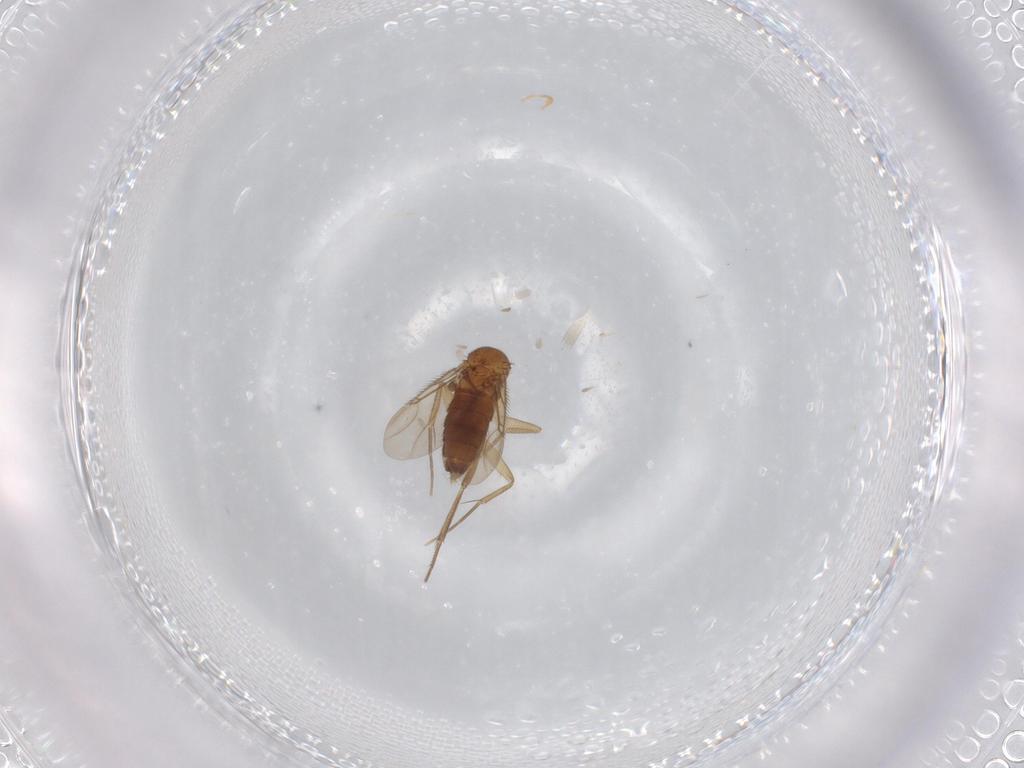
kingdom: Animalia
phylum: Arthropoda
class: Insecta
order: Diptera
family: Phoridae
